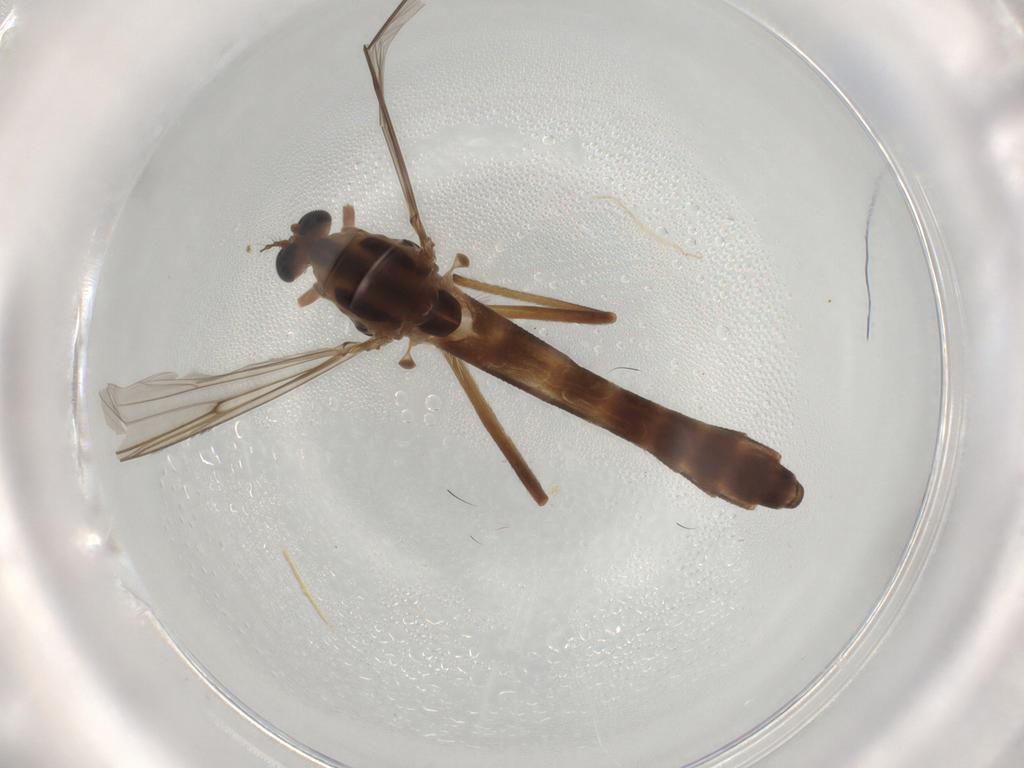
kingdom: Animalia
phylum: Arthropoda
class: Insecta
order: Diptera
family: Chironomidae
